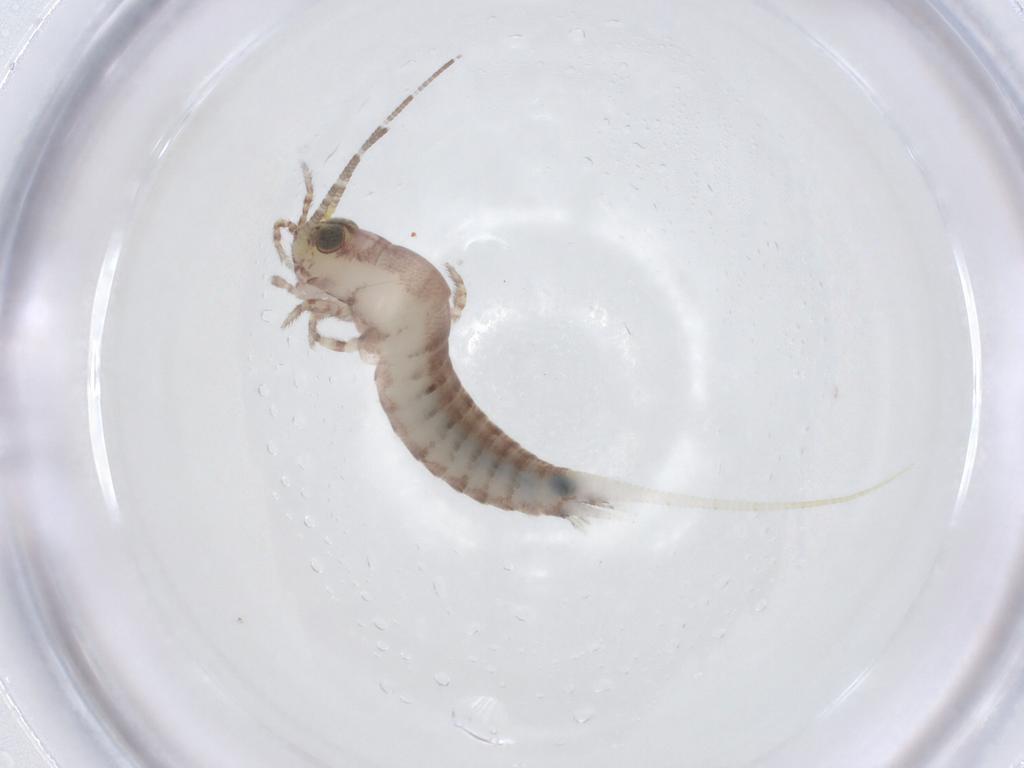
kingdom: Animalia
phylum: Arthropoda
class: Insecta
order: Archaeognatha
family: Meinertellidae
